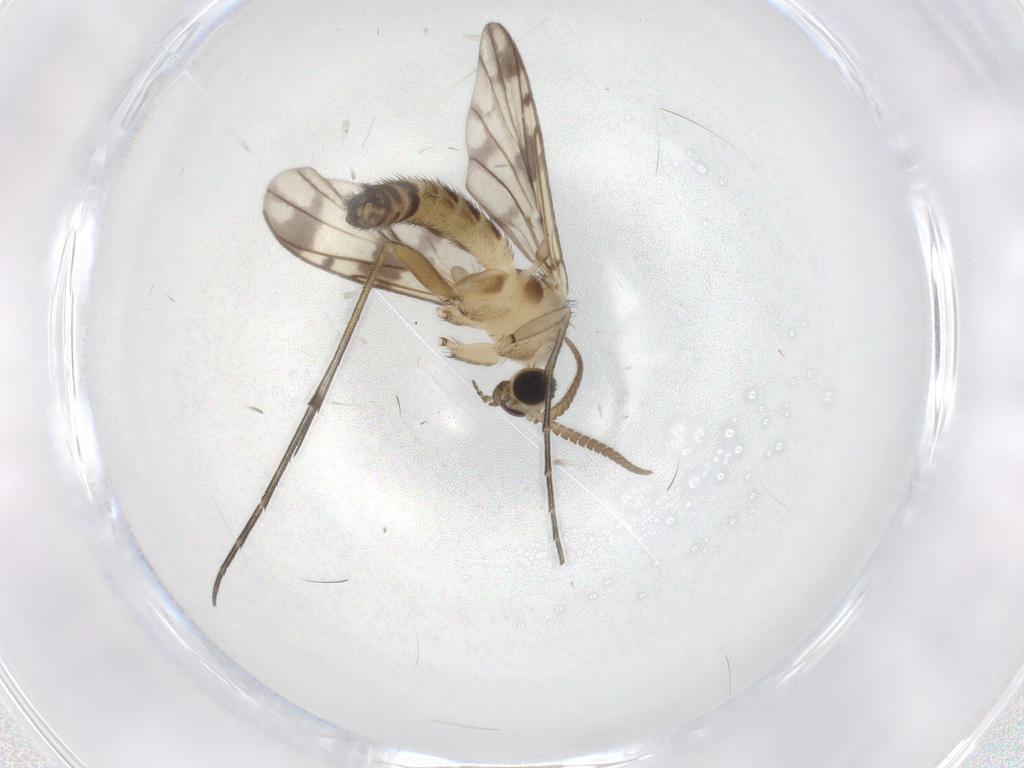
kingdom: Animalia
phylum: Arthropoda
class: Insecta
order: Diptera
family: Sciaridae
